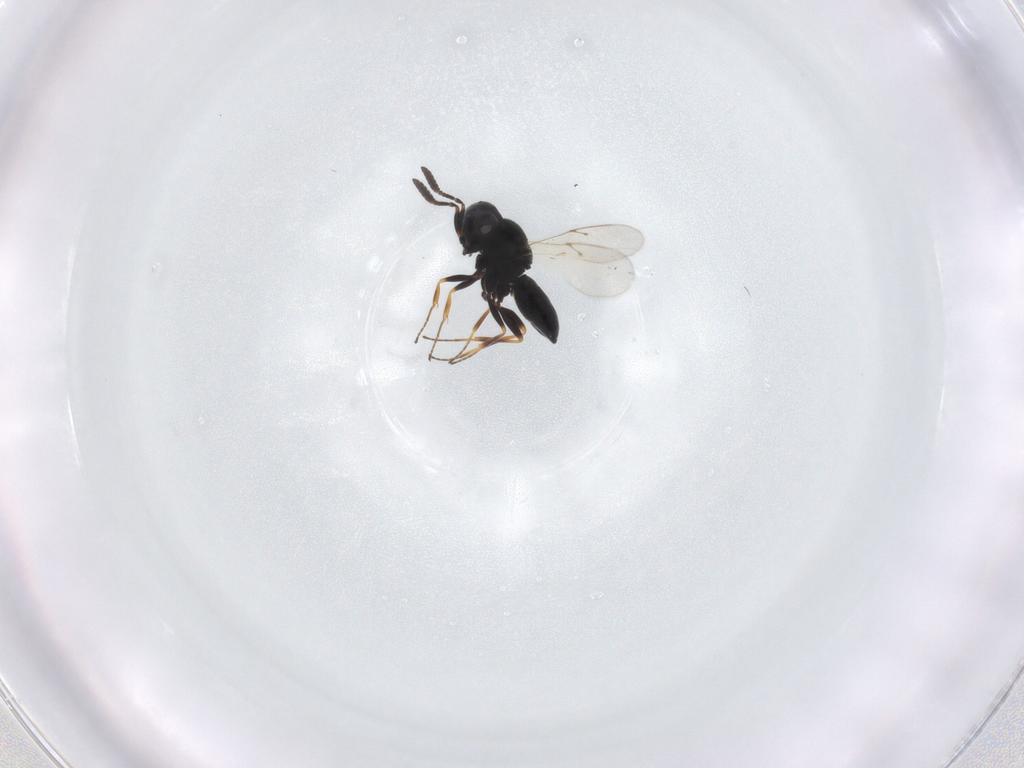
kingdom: Animalia
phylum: Arthropoda
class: Insecta
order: Hymenoptera
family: Scelionidae
